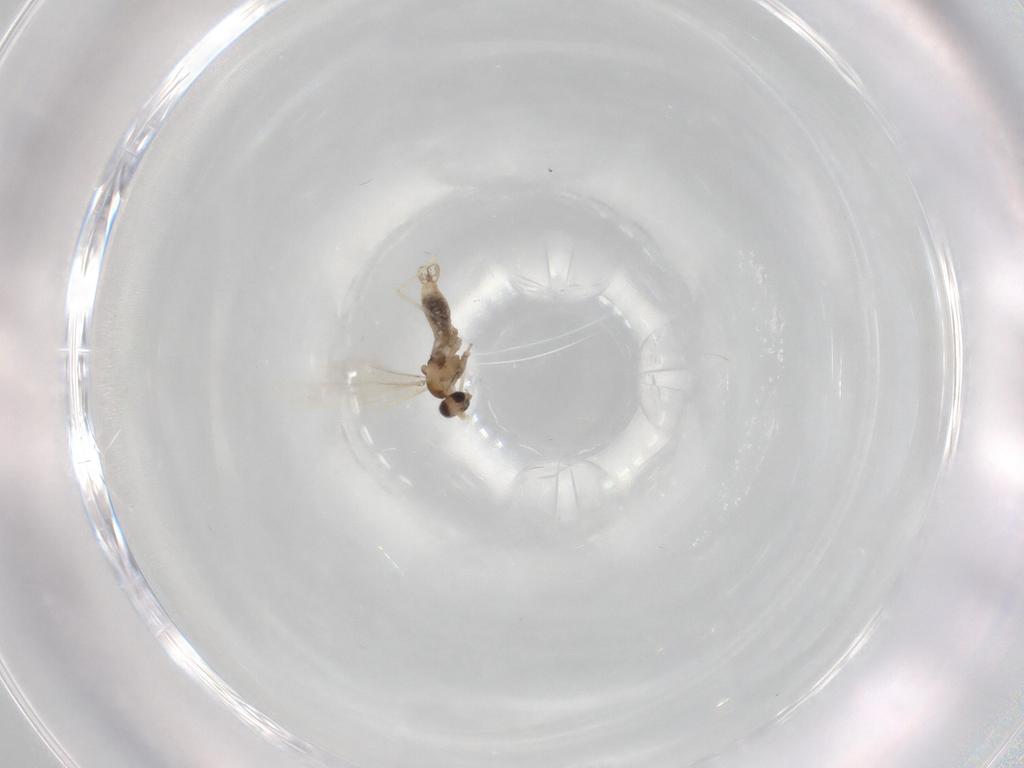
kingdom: Animalia
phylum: Arthropoda
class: Insecta
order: Diptera
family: Cecidomyiidae
